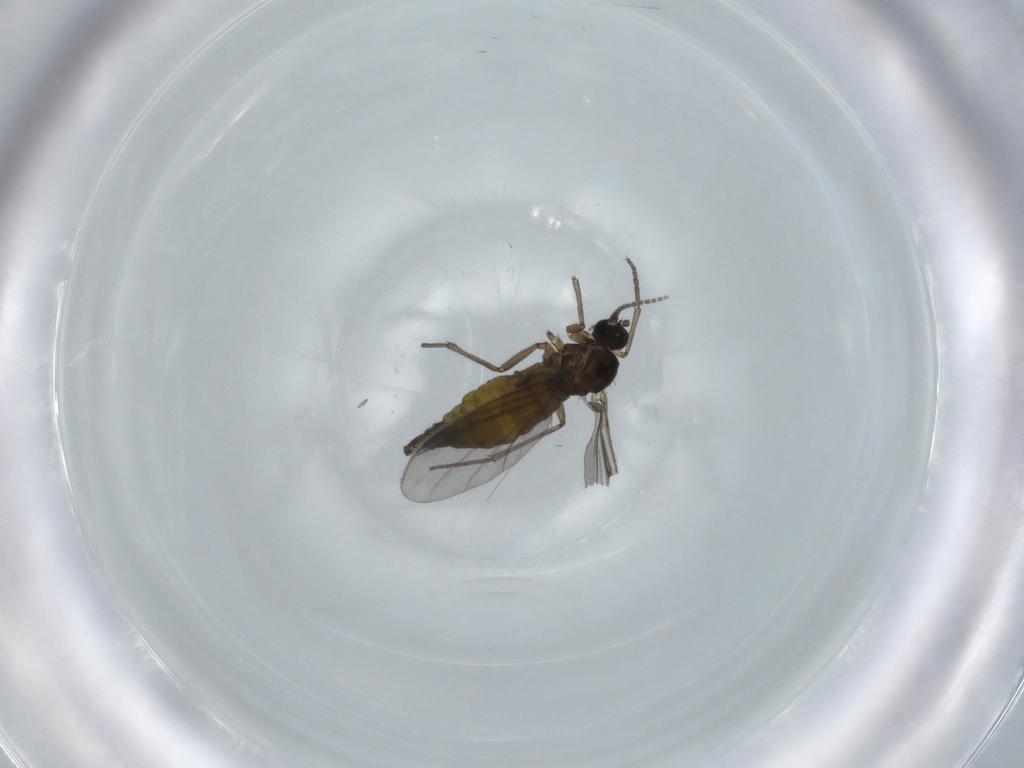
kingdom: Animalia
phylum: Arthropoda
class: Insecta
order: Diptera
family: Sciaridae
